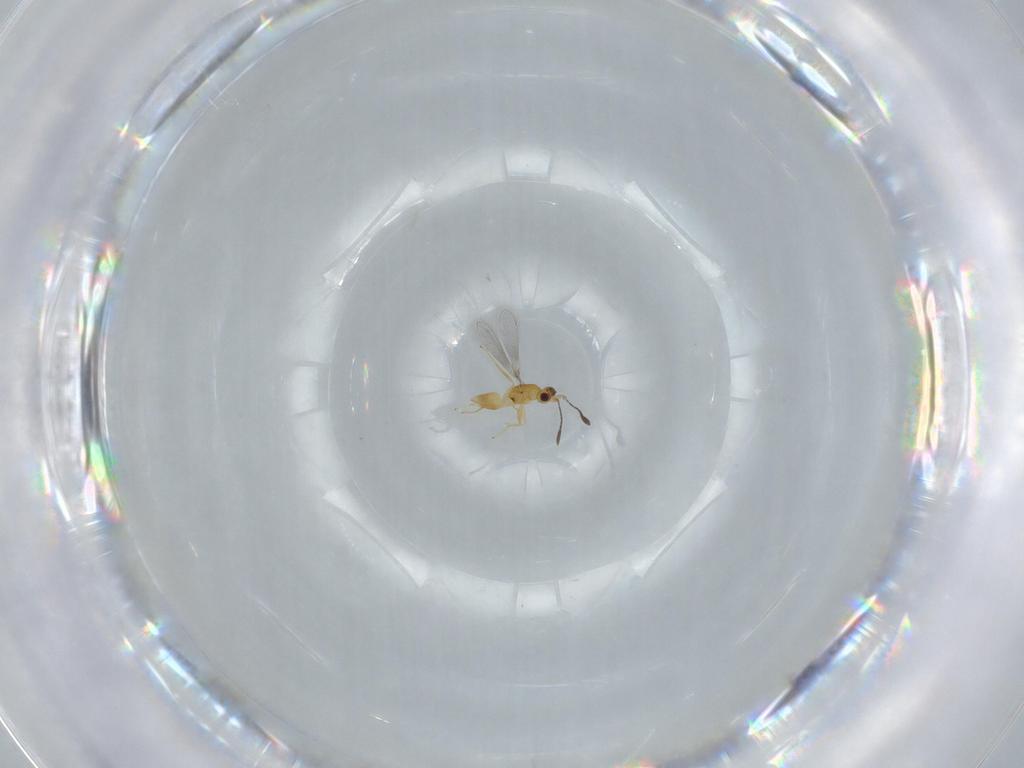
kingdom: Animalia
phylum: Arthropoda
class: Insecta
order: Hymenoptera
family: Mymaridae
